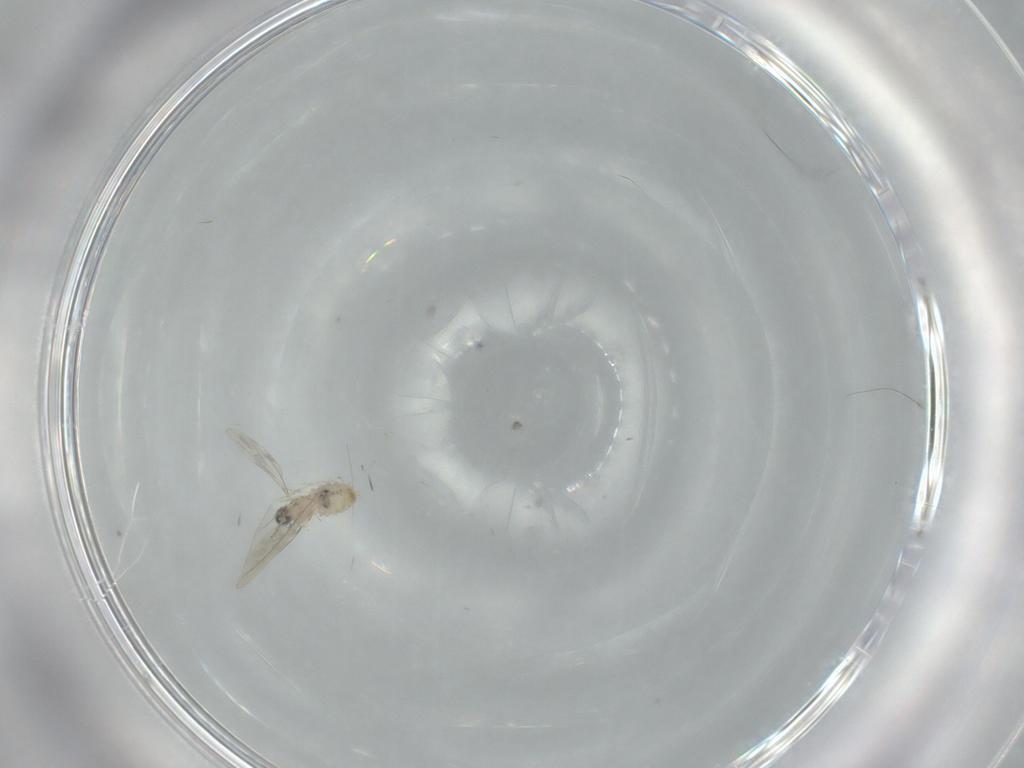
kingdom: Animalia
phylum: Arthropoda
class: Insecta
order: Diptera
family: Cecidomyiidae
